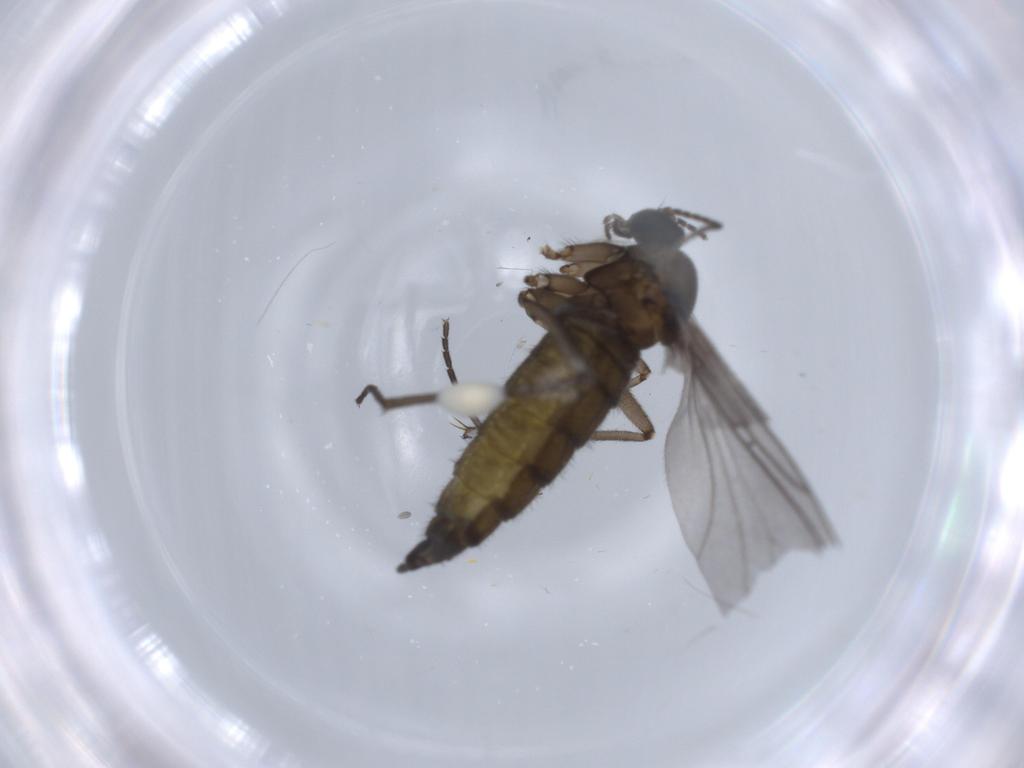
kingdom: Animalia
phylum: Arthropoda
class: Insecta
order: Diptera
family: Sciaridae
